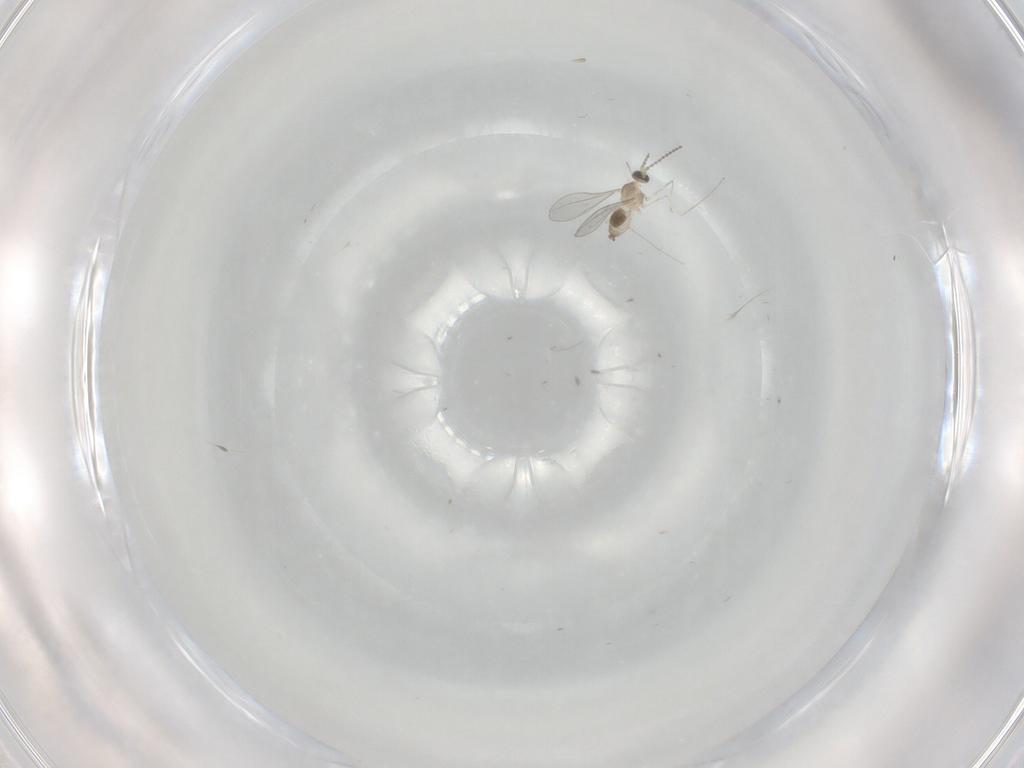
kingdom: Animalia
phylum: Arthropoda
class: Insecta
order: Diptera
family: Cecidomyiidae
